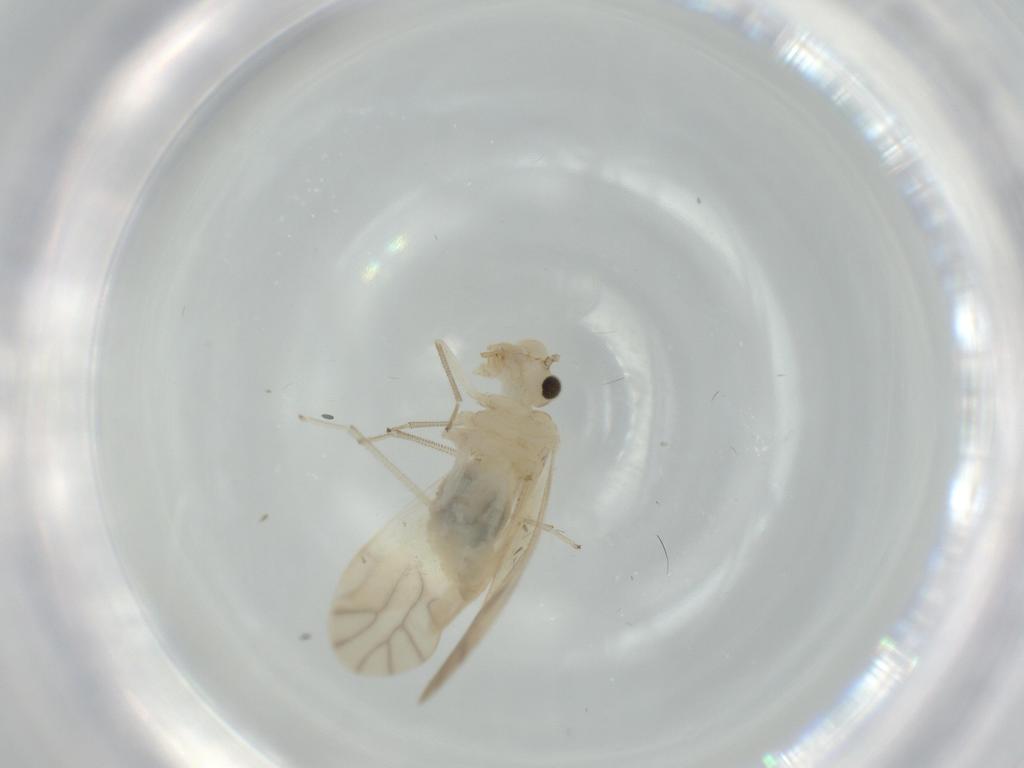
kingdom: Animalia
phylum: Arthropoda
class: Insecta
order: Psocodea
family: Caeciliusidae
